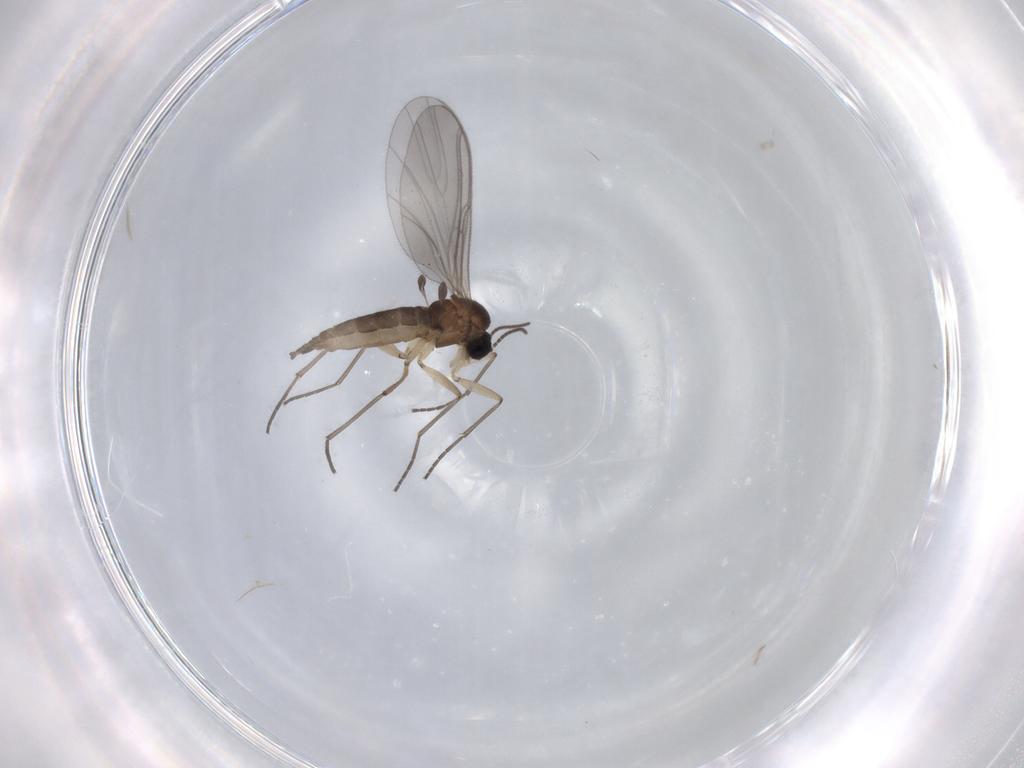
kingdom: Animalia
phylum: Arthropoda
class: Insecta
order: Diptera
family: Sciaridae
